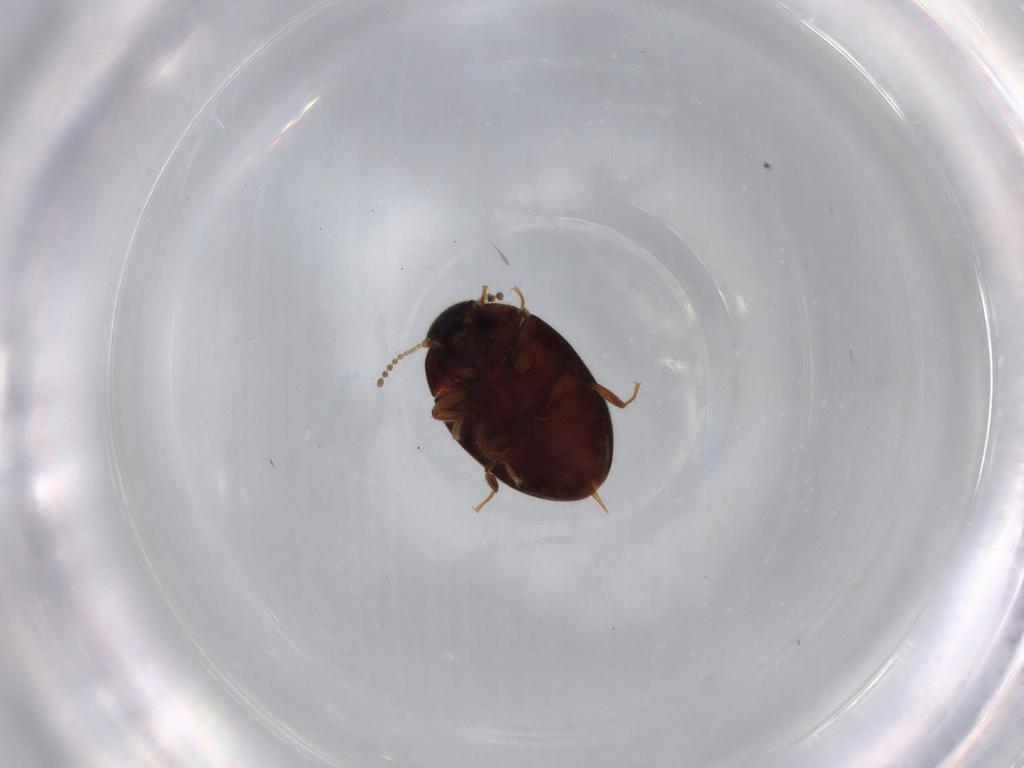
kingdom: Animalia
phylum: Arthropoda
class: Insecta
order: Coleoptera
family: Limnichidae
